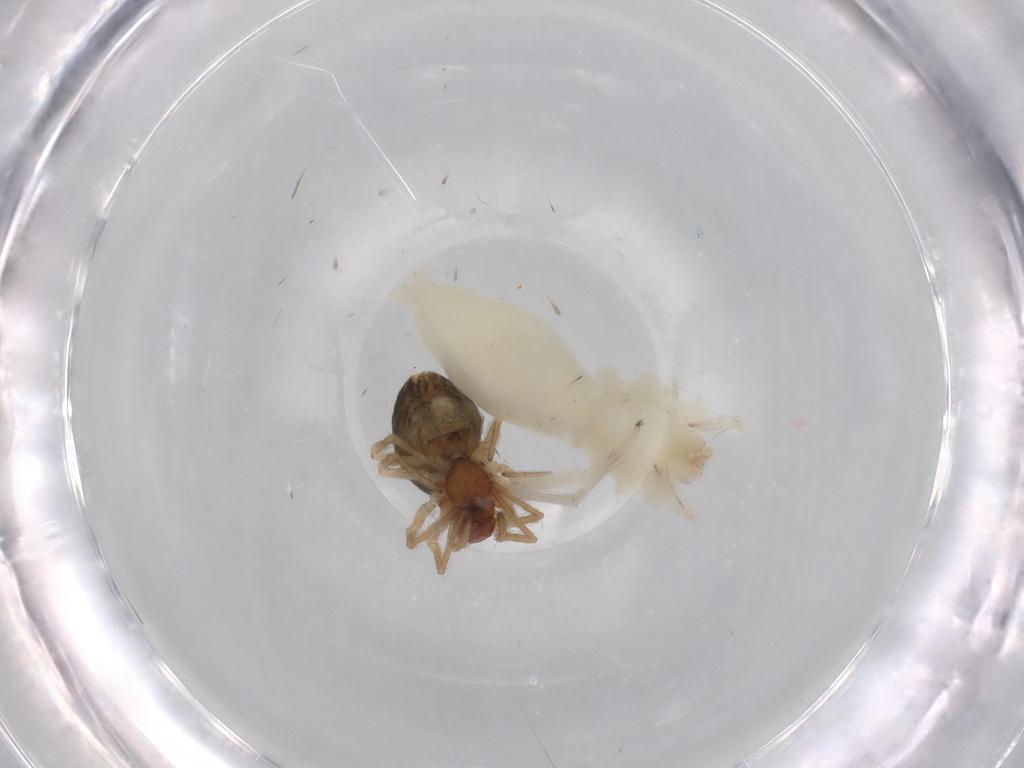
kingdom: Animalia
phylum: Arthropoda
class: Arachnida
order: Araneae
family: Anyphaenidae
